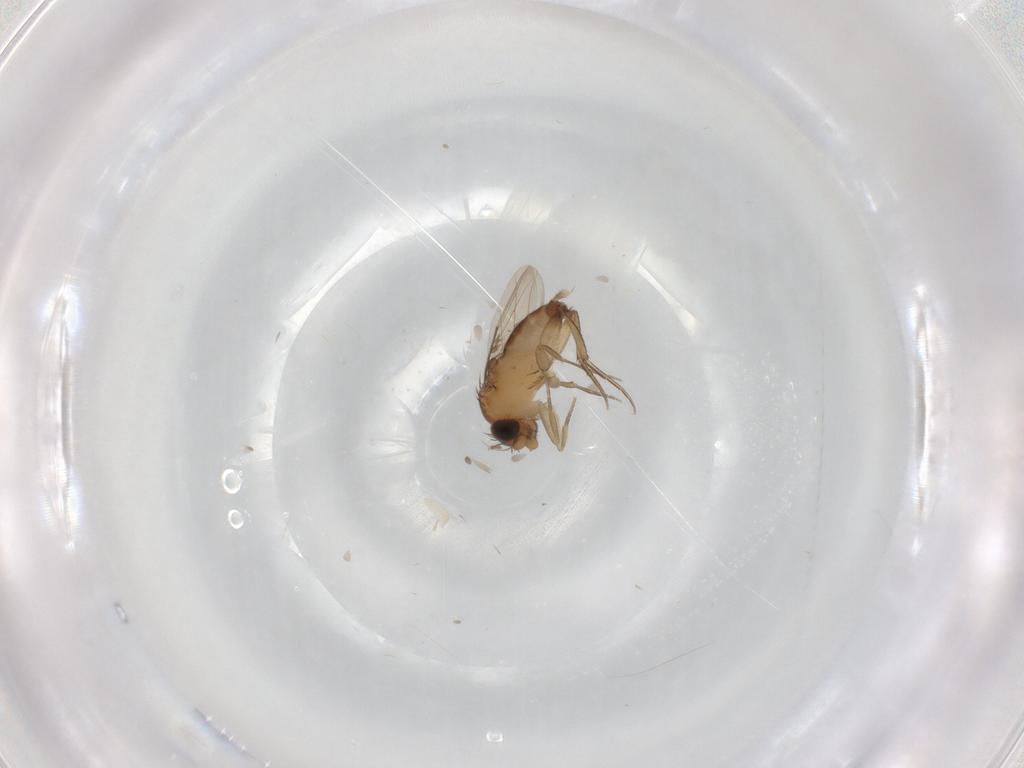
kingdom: Animalia
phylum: Arthropoda
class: Insecta
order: Diptera
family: Phoridae
